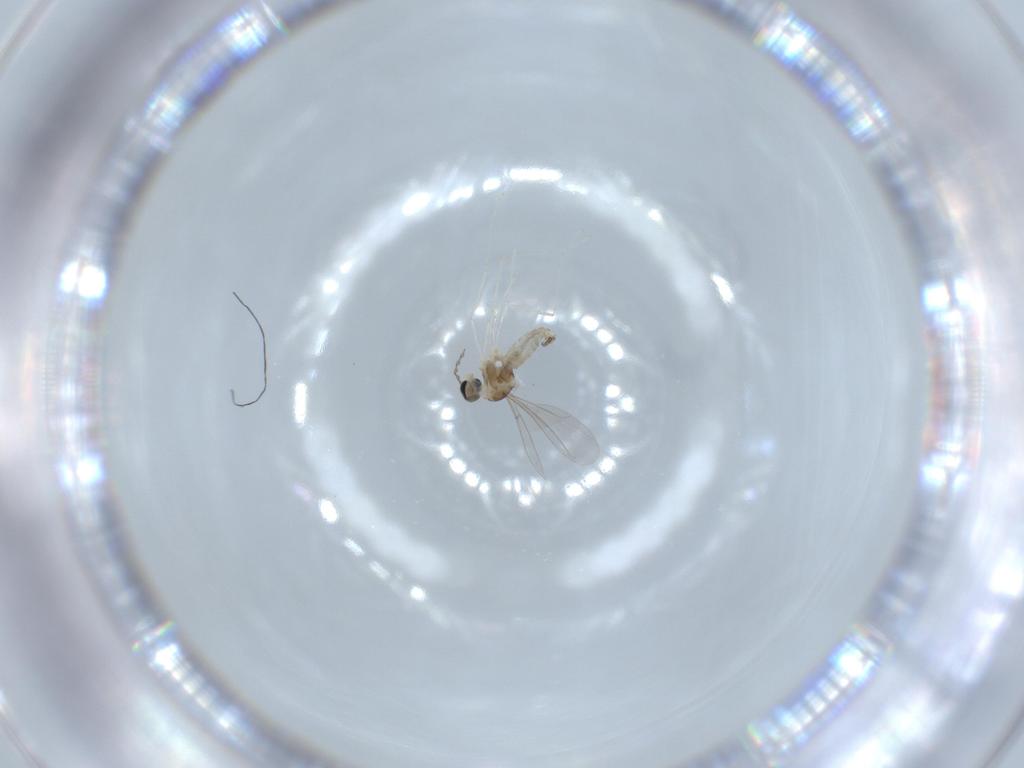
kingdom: Animalia
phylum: Arthropoda
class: Insecta
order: Diptera
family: Cecidomyiidae
